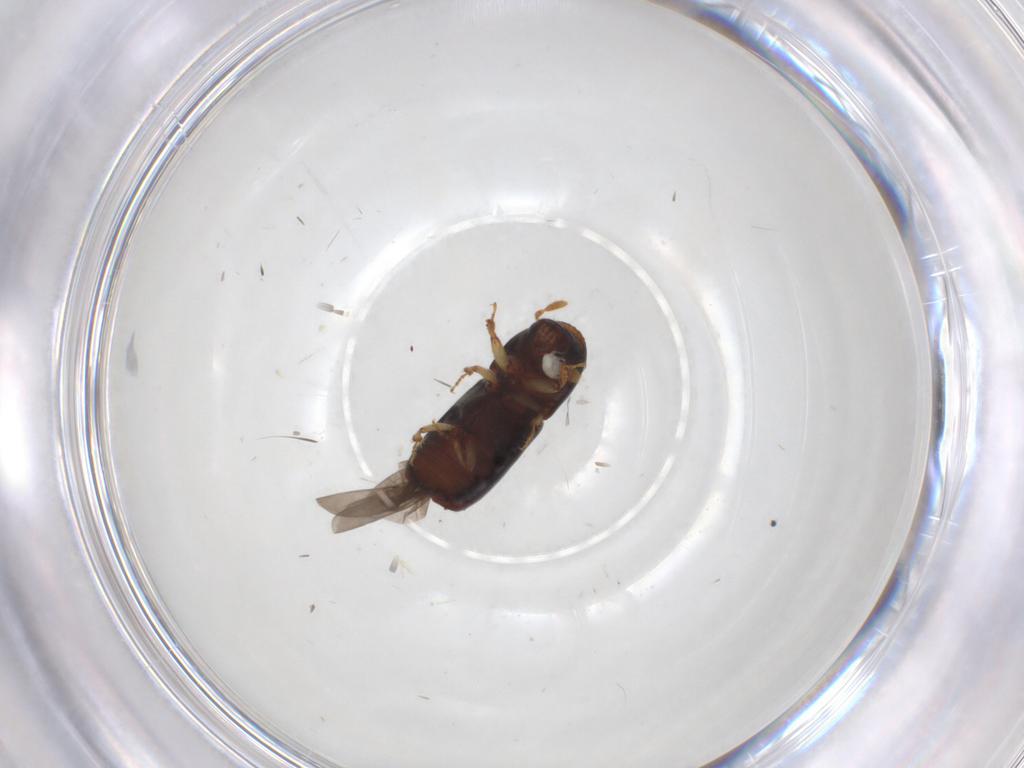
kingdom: Animalia
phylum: Arthropoda
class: Insecta
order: Coleoptera
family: Curculionidae
